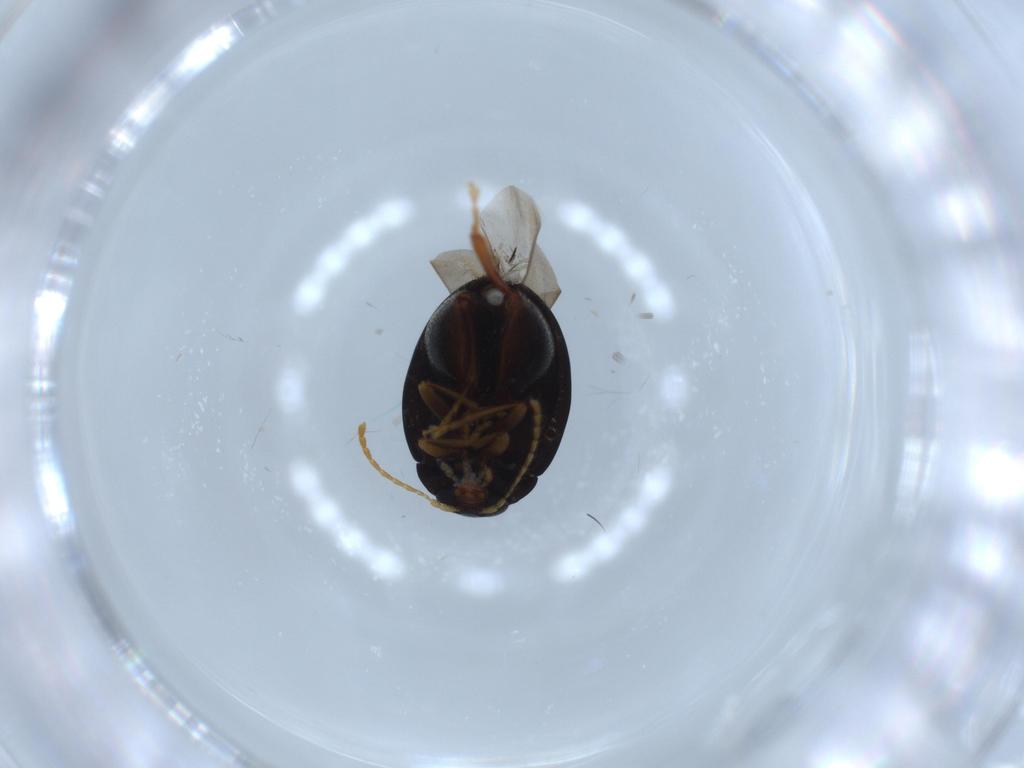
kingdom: Animalia
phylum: Arthropoda
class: Insecta
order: Coleoptera
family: Chrysomelidae
